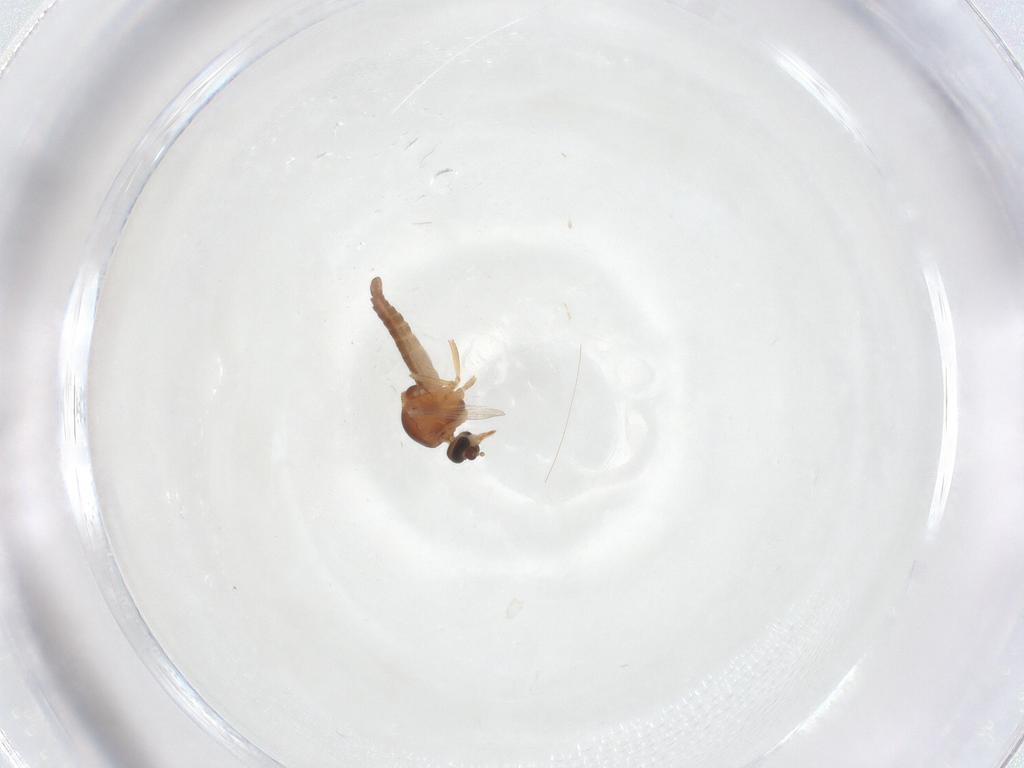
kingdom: Animalia
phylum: Arthropoda
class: Insecta
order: Diptera
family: Ceratopogonidae
